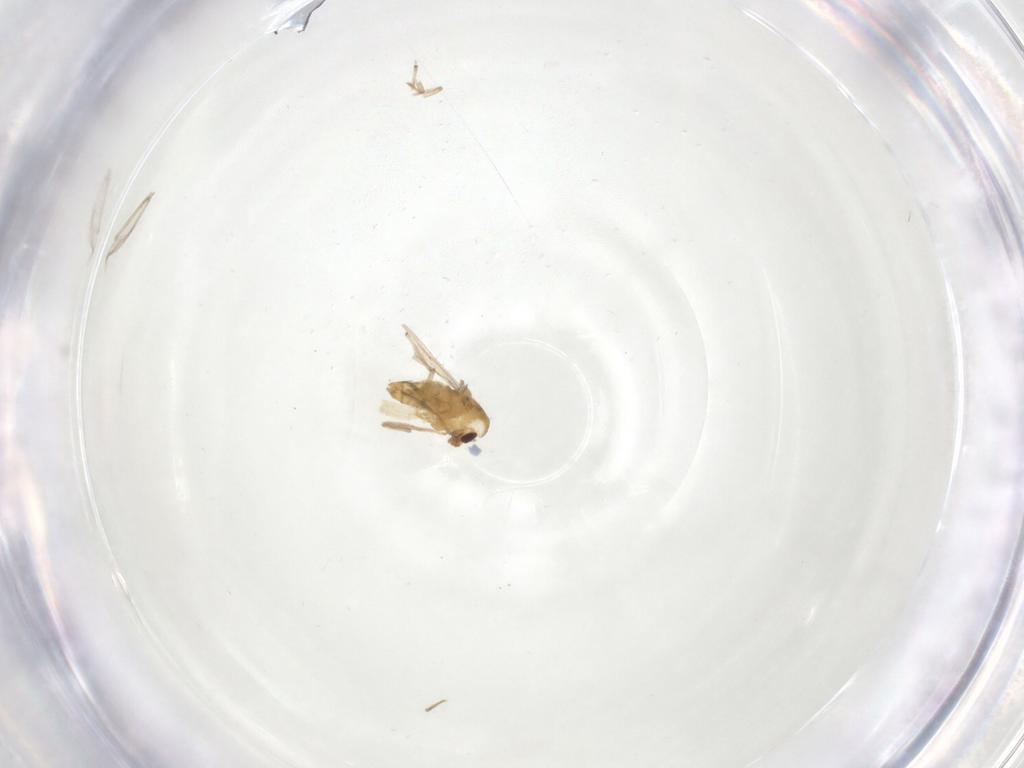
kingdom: Animalia
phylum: Arthropoda
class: Insecta
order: Diptera
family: Chironomidae
